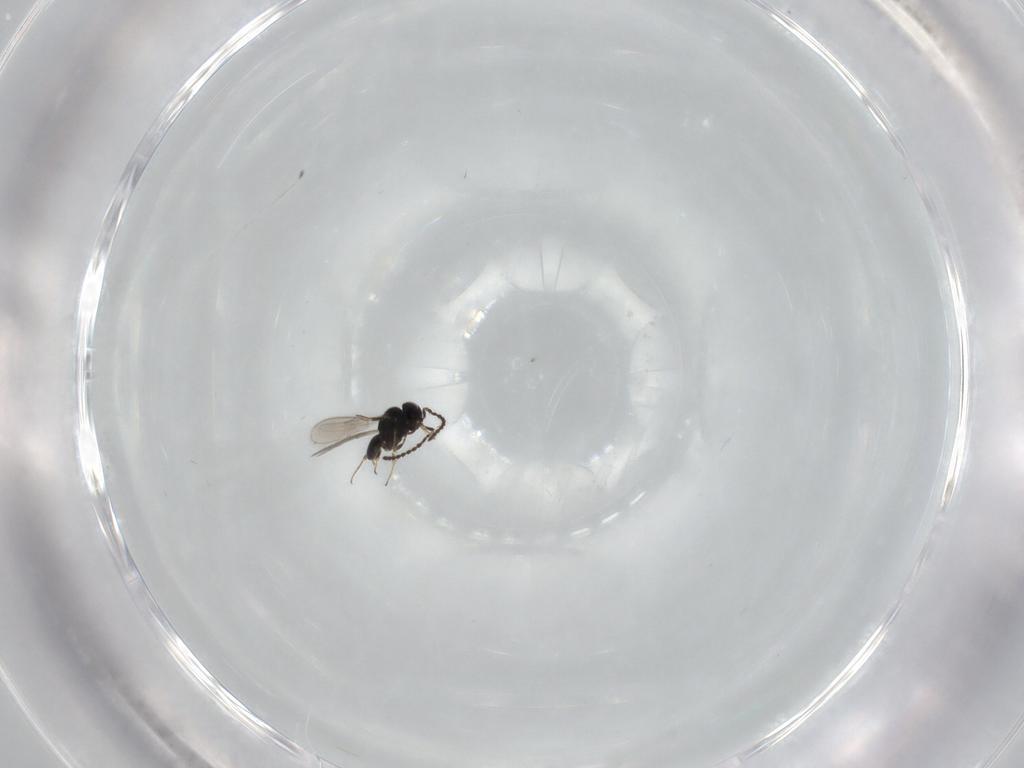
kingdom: Animalia
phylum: Arthropoda
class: Insecta
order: Hymenoptera
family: Scelionidae
